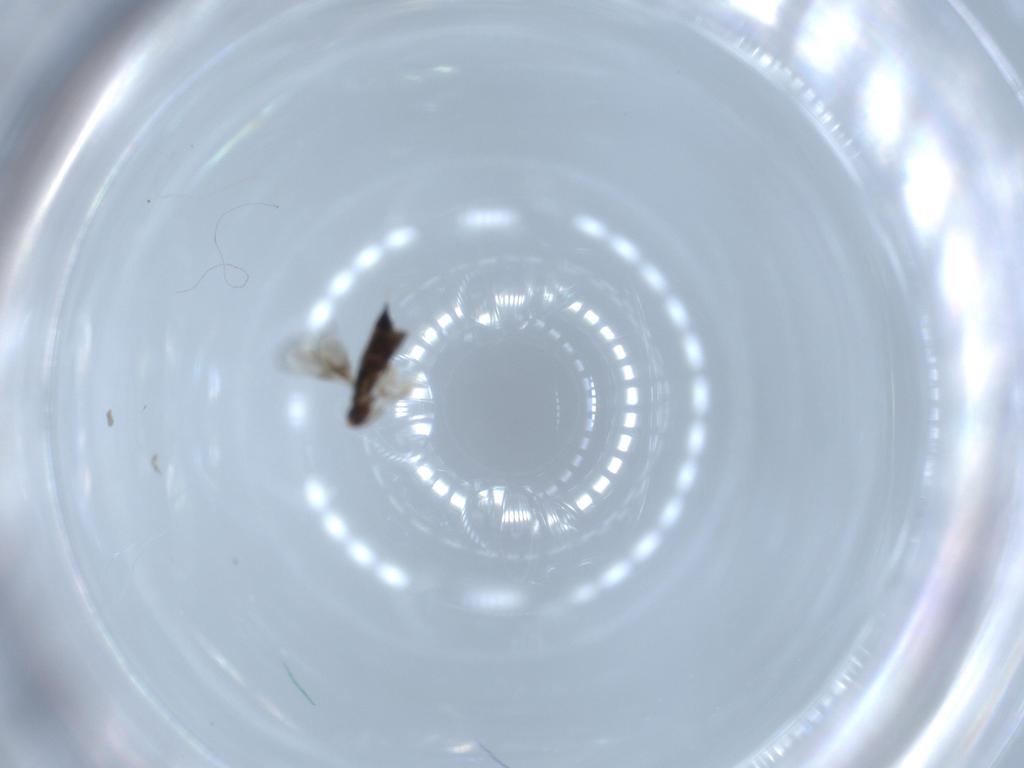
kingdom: Animalia
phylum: Arthropoda
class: Insecta
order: Hymenoptera
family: Signiphoridae
